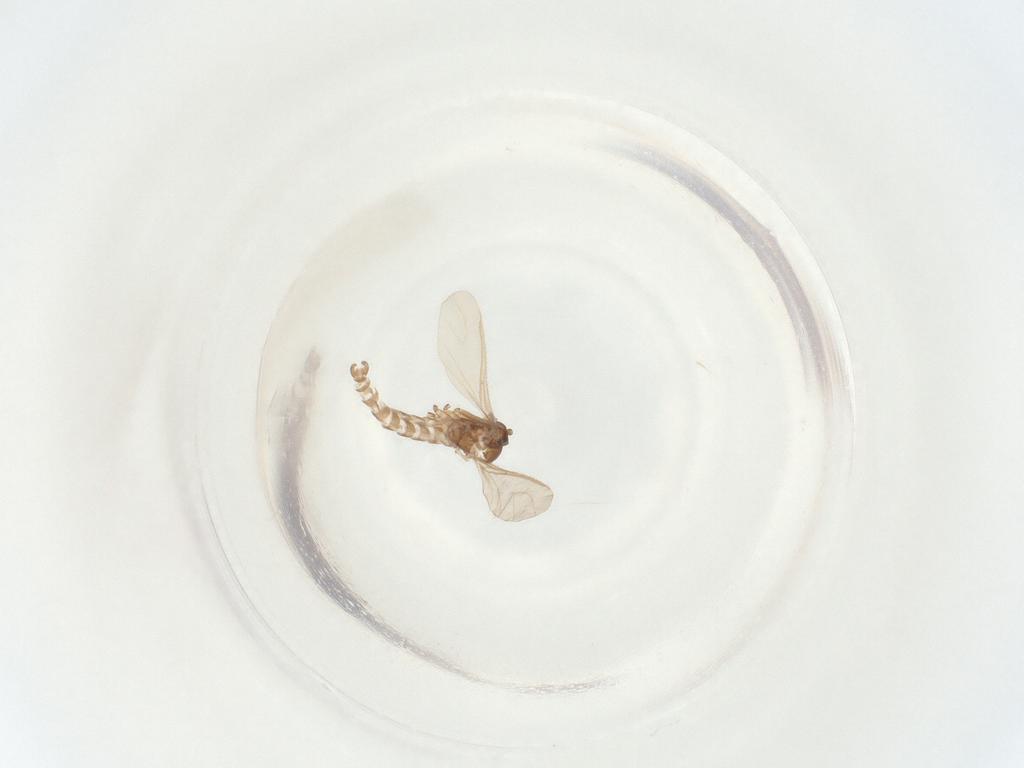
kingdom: Animalia
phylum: Arthropoda
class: Insecta
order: Diptera
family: Sciaridae
